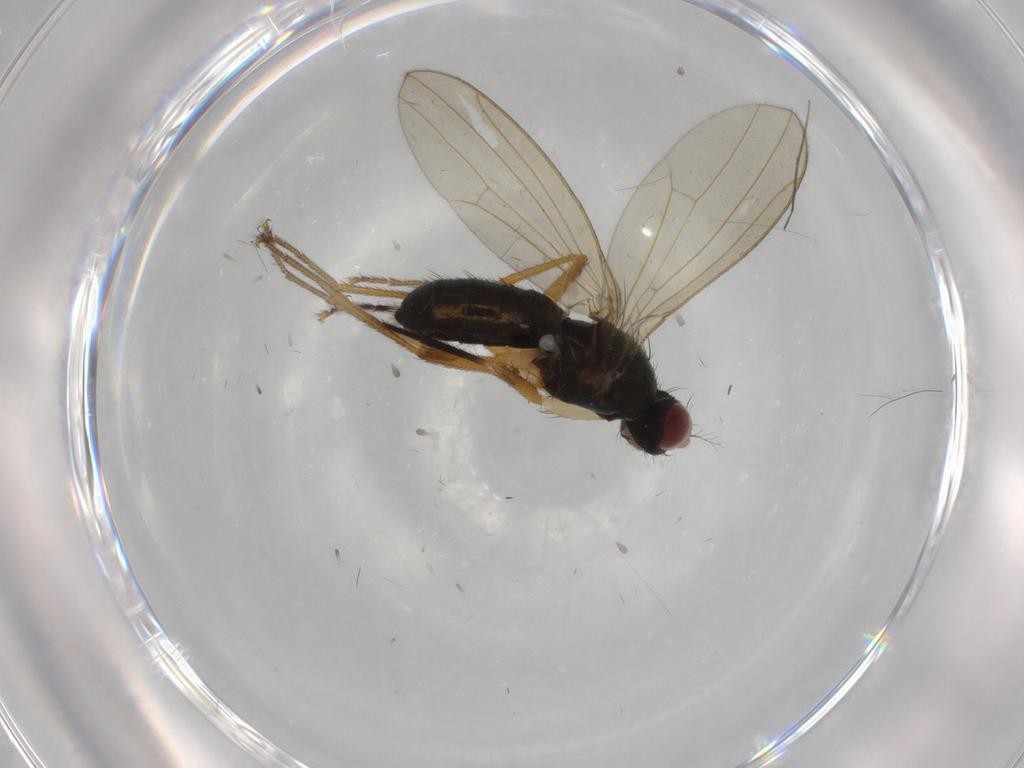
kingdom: Animalia
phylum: Arthropoda
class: Insecta
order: Diptera
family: Drosophilidae
